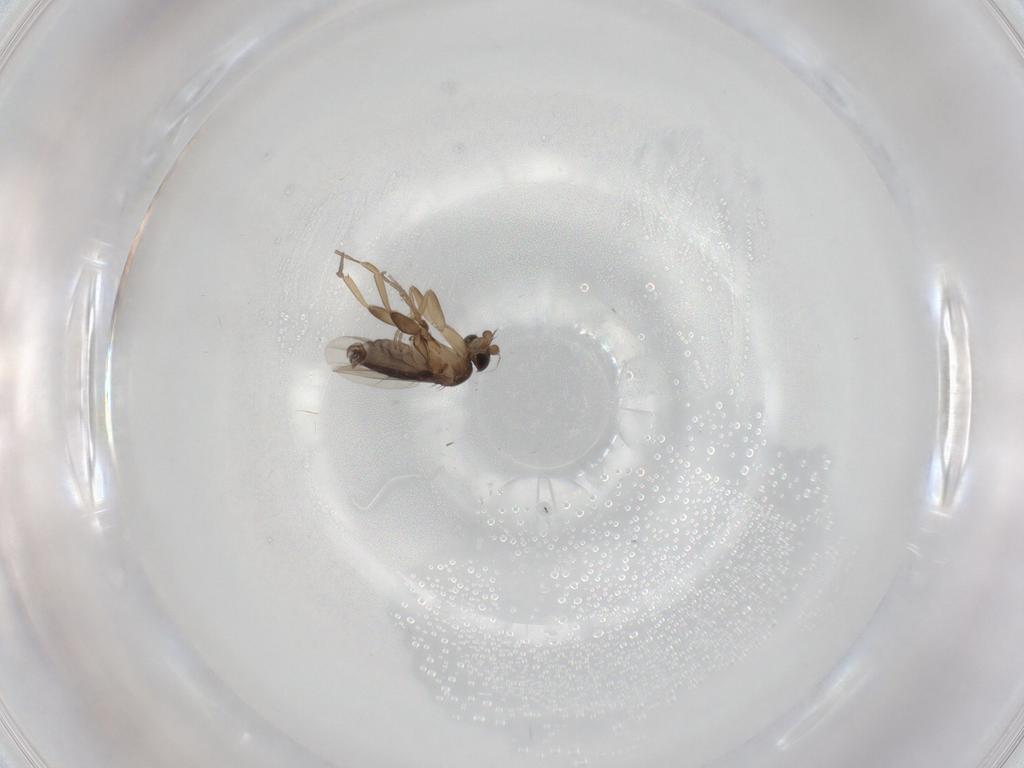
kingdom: Animalia
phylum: Arthropoda
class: Insecta
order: Diptera
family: Phoridae
